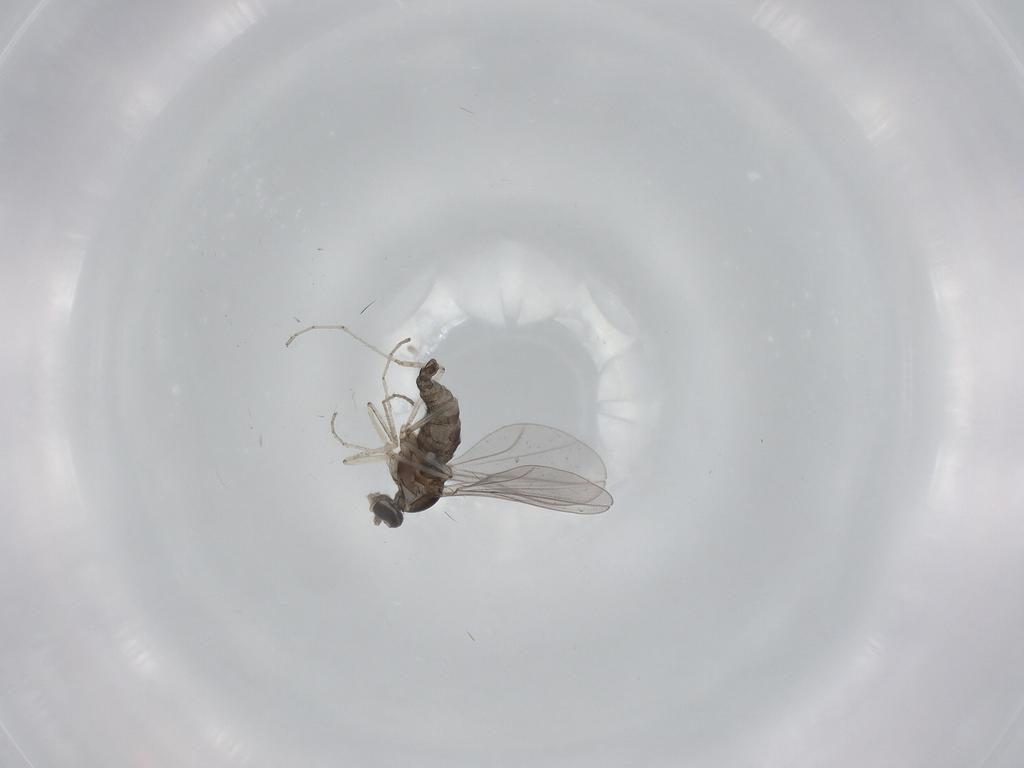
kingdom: Animalia
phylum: Arthropoda
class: Insecta
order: Diptera
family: Cecidomyiidae
